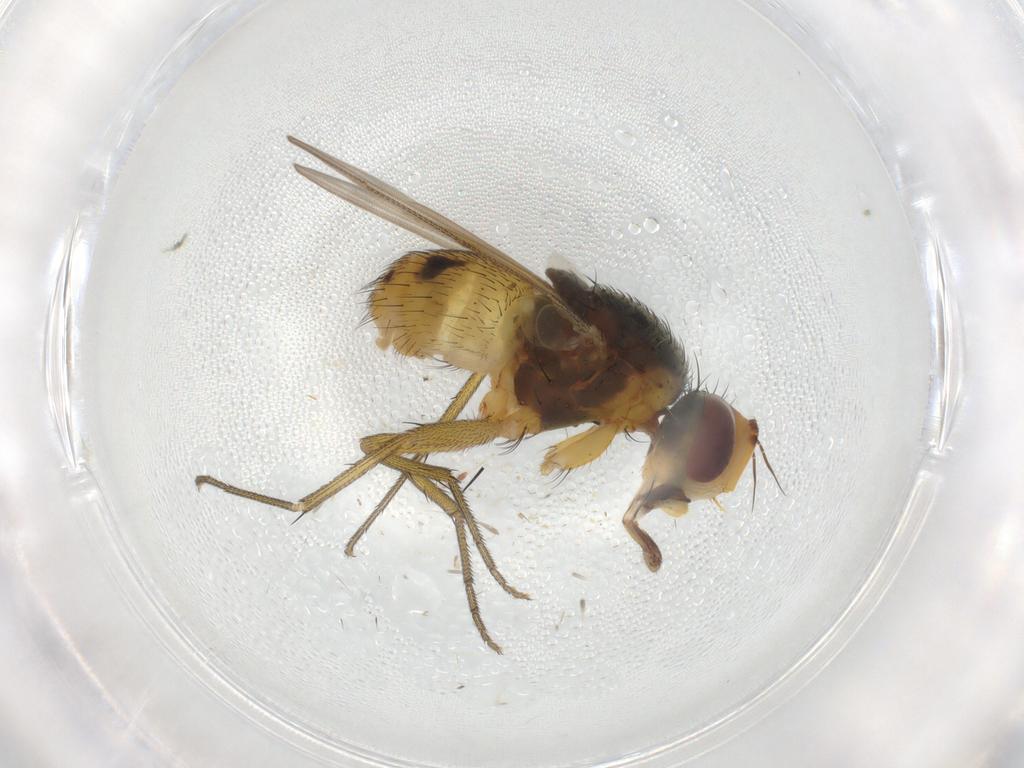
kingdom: Animalia
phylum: Arthropoda
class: Insecta
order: Diptera
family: Muscidae
